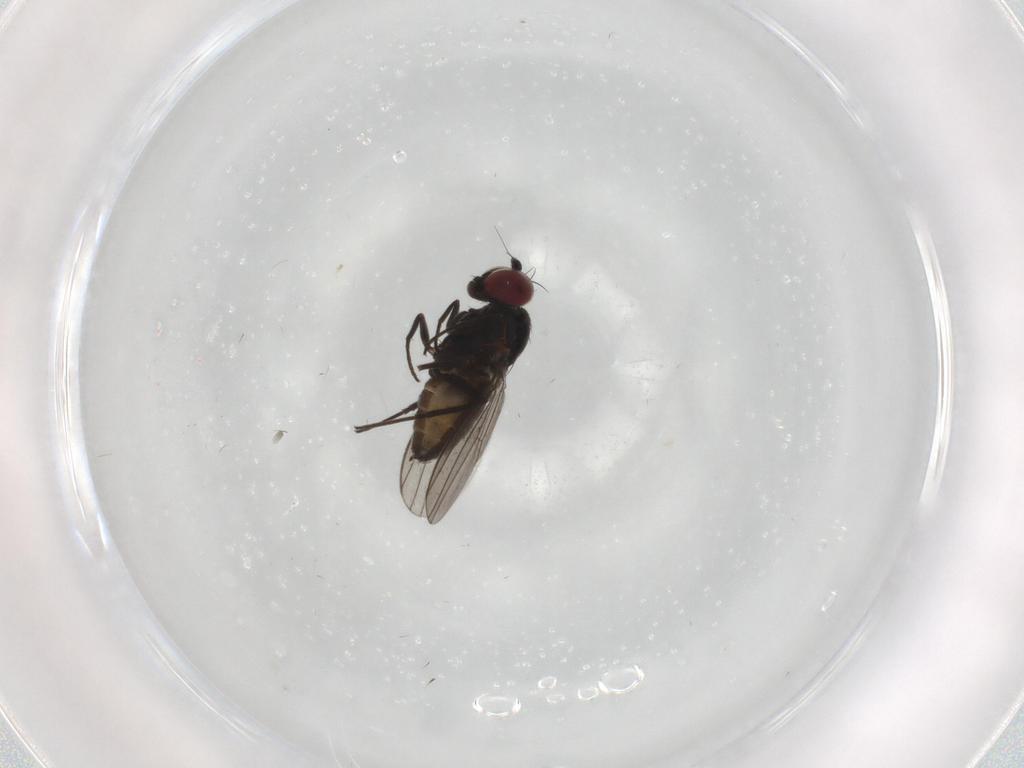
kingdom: Animalia
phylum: Arthropoda
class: Insecta
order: Diptera
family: Dolichopodidae
